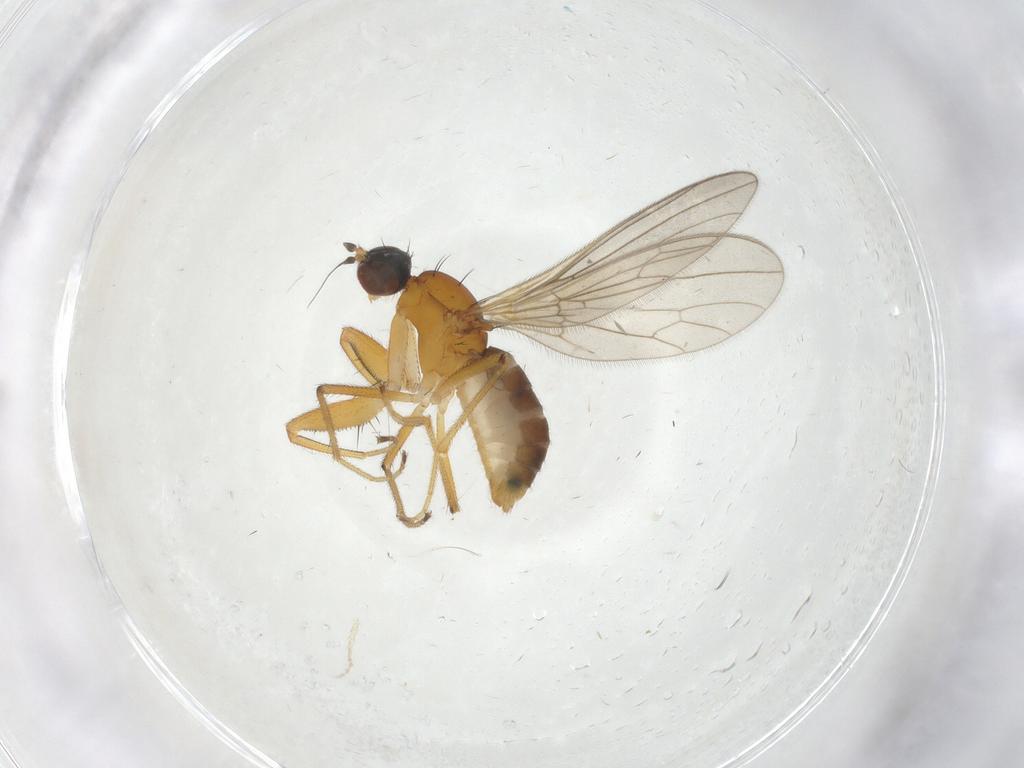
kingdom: Animalia
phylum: Arthropoda
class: Insecta
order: Diptera
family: Empididae
